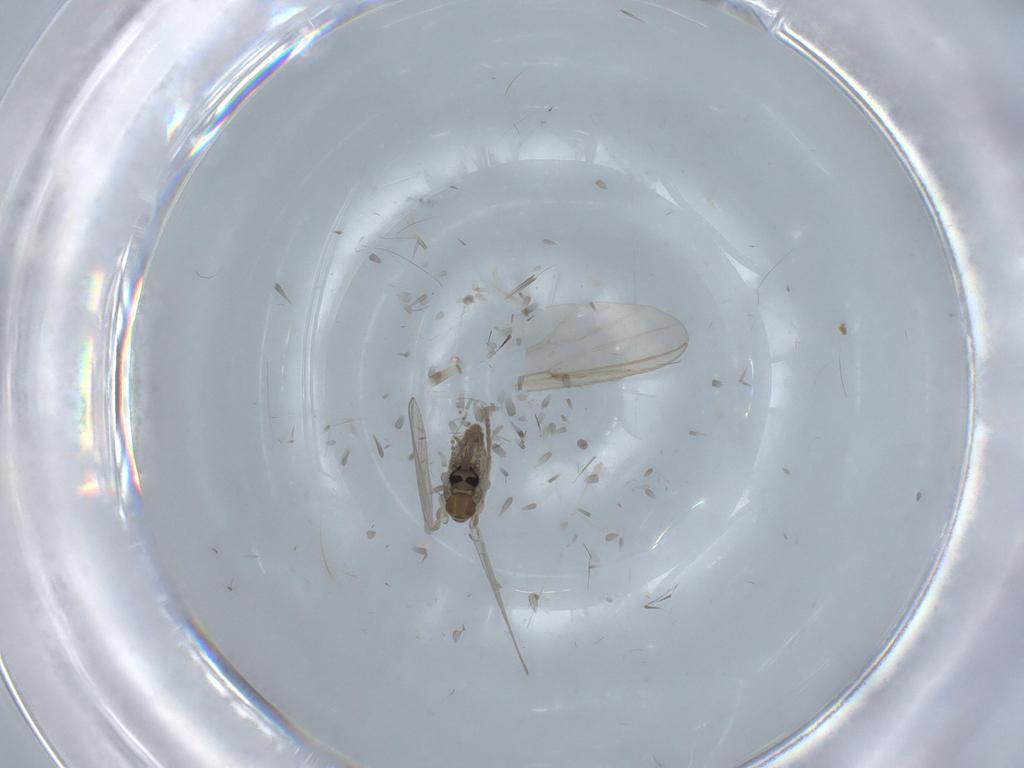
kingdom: Animalia
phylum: Arthropoda
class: Insecta
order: Diptera
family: Psychodidae
